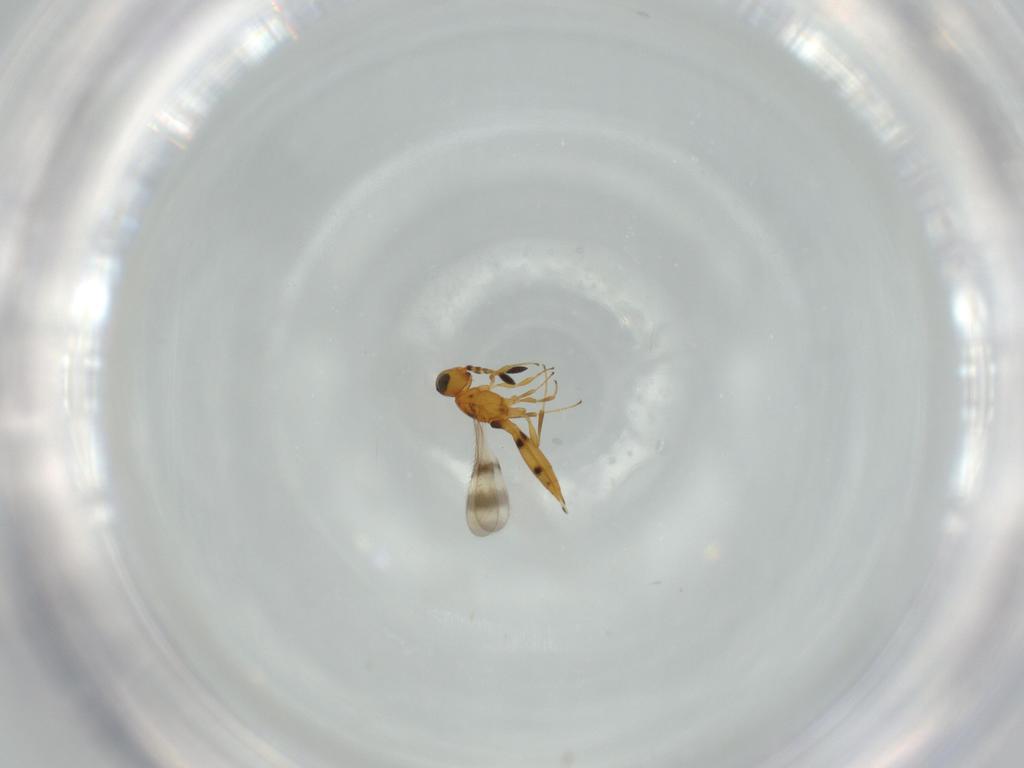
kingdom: Animalia
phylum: Arthropoda
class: Insecta
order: Hymenoptera
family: Scelionidae
